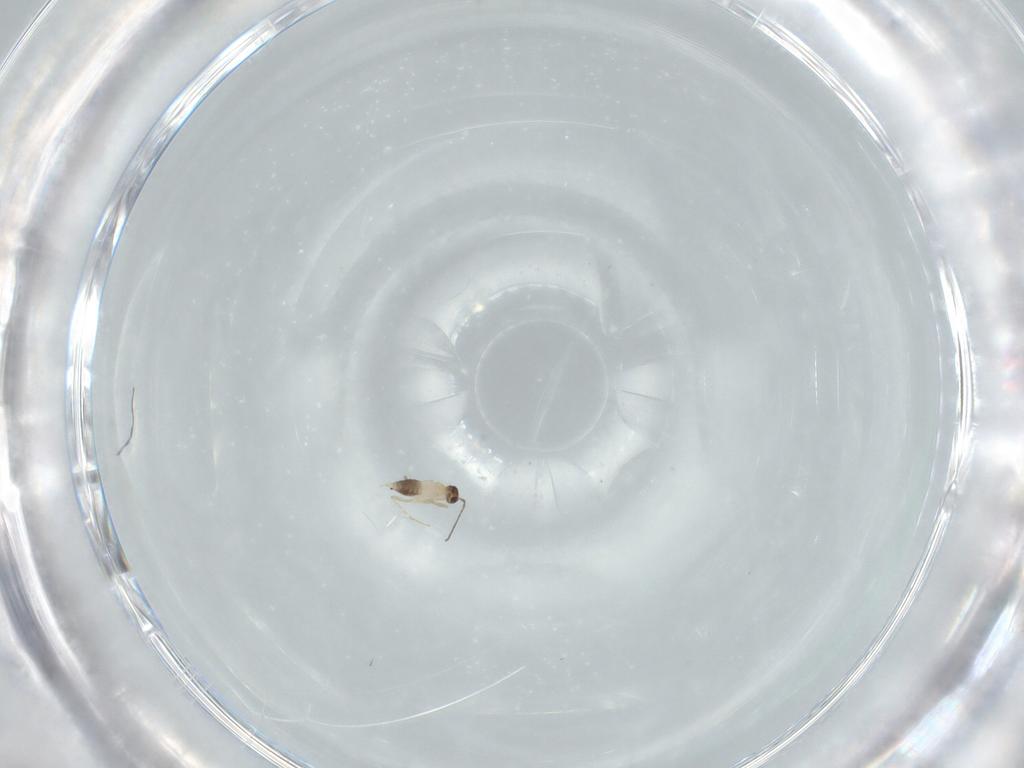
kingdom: Animalia
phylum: Arthropoda
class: Insecta
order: Hymenoptera
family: Mymaridae
